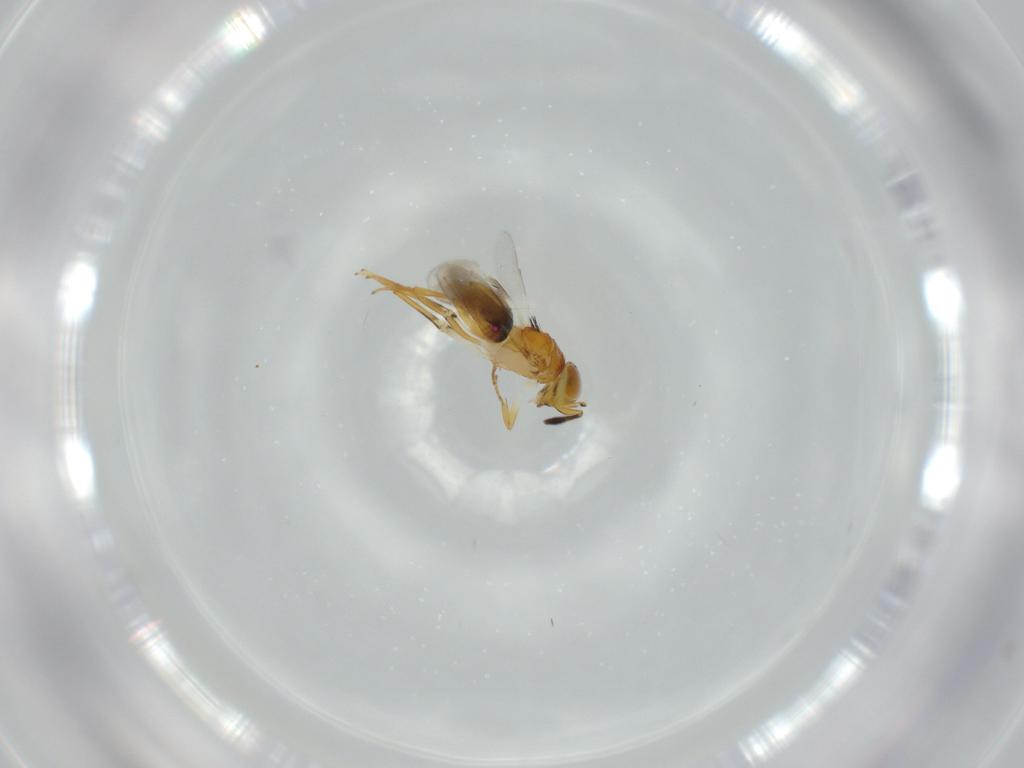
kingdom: Animalia
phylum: Arthropoda
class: Insecta
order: Hymenoptera
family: Encyrtidae
